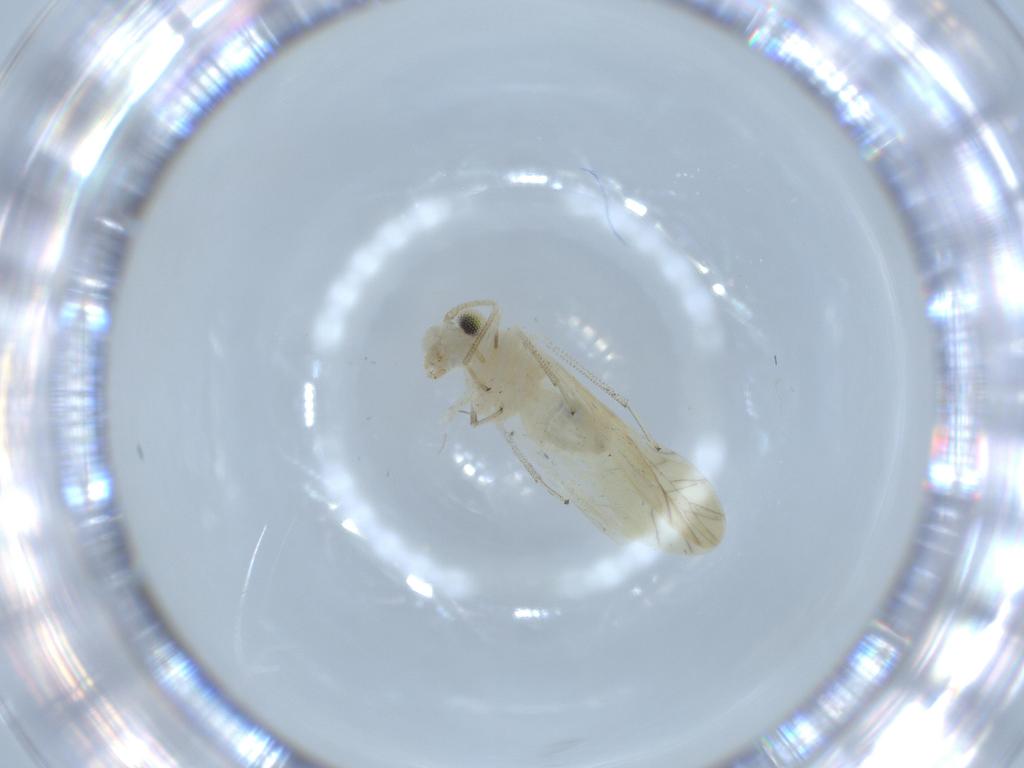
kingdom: Animalia
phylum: Arthropoda
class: Insecta
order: Psocodea
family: Caeciliusidae
